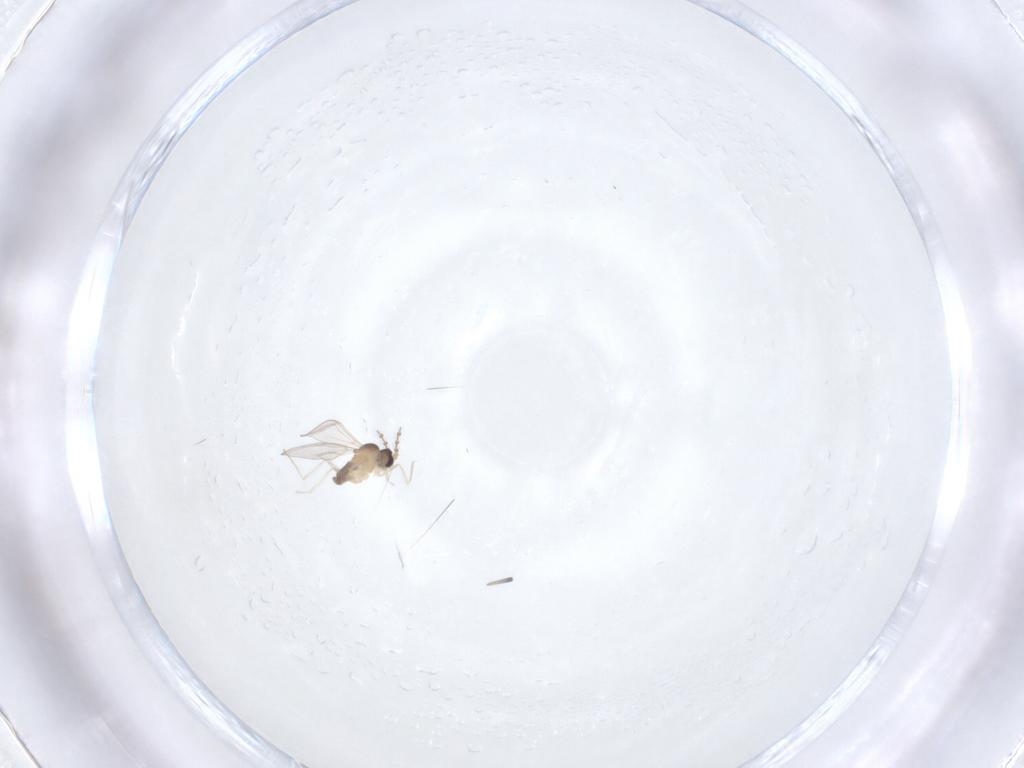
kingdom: Animalia
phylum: Arthropoda
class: Insecta
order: Diptera
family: Cecidomyiidae
